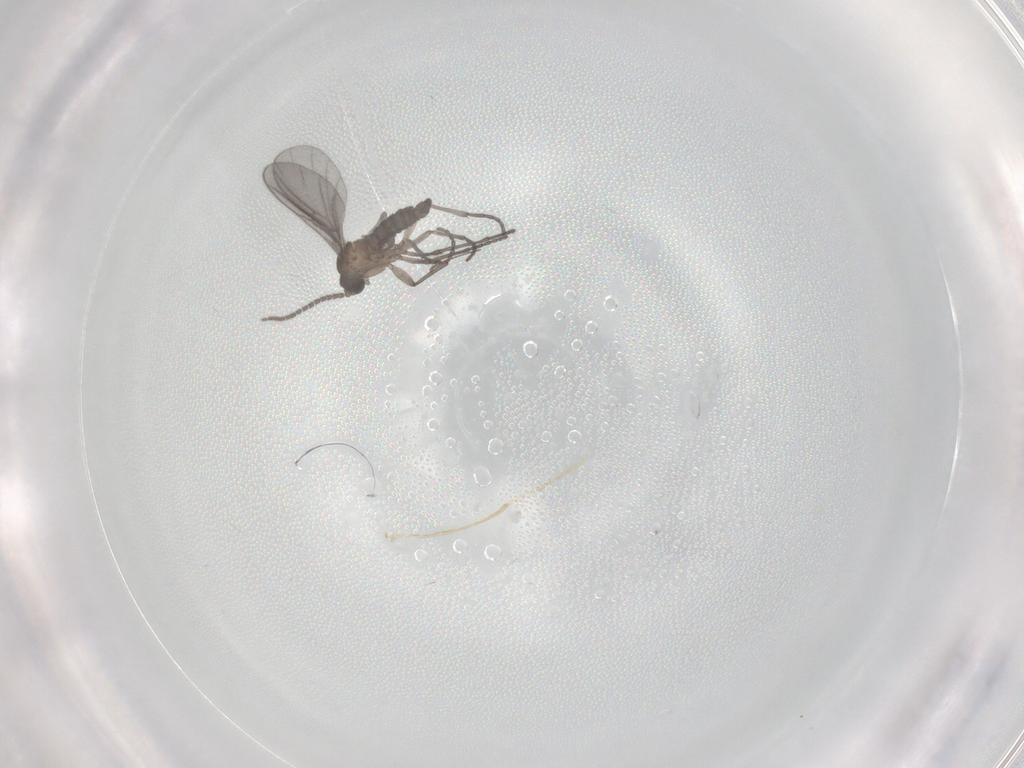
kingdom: Animalia
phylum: Arthropoda
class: Insecta
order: Diptera
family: Sciaridae
